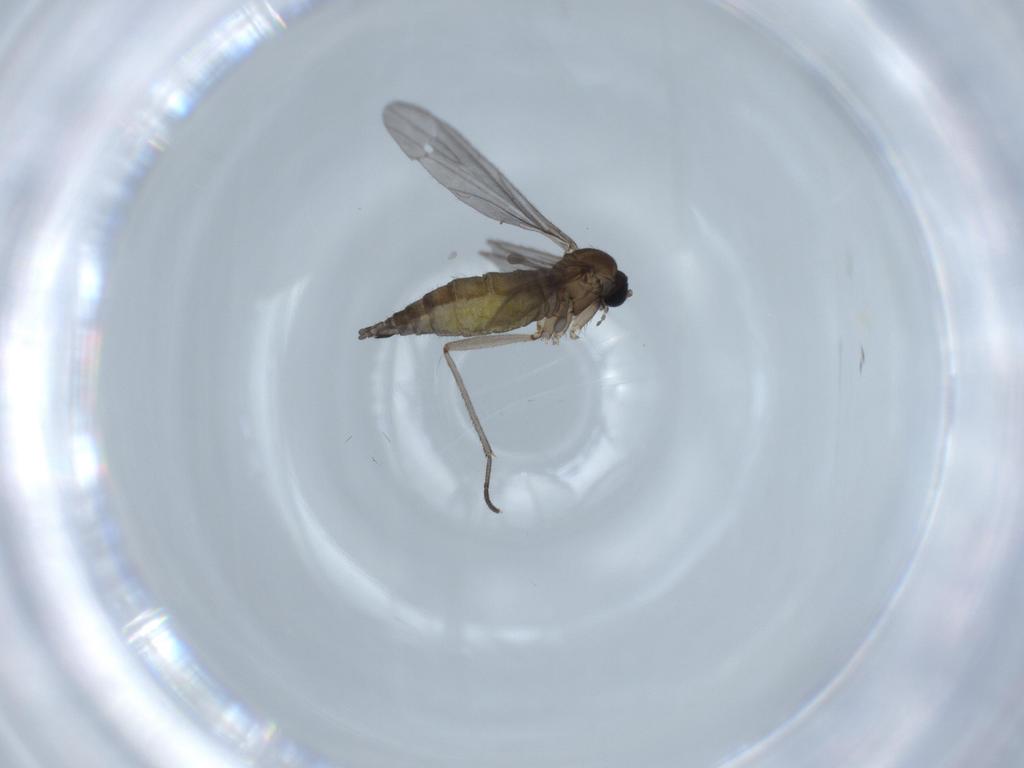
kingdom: Animalia
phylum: Arthropoda
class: Insecta
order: Diptera
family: Sciaridae
